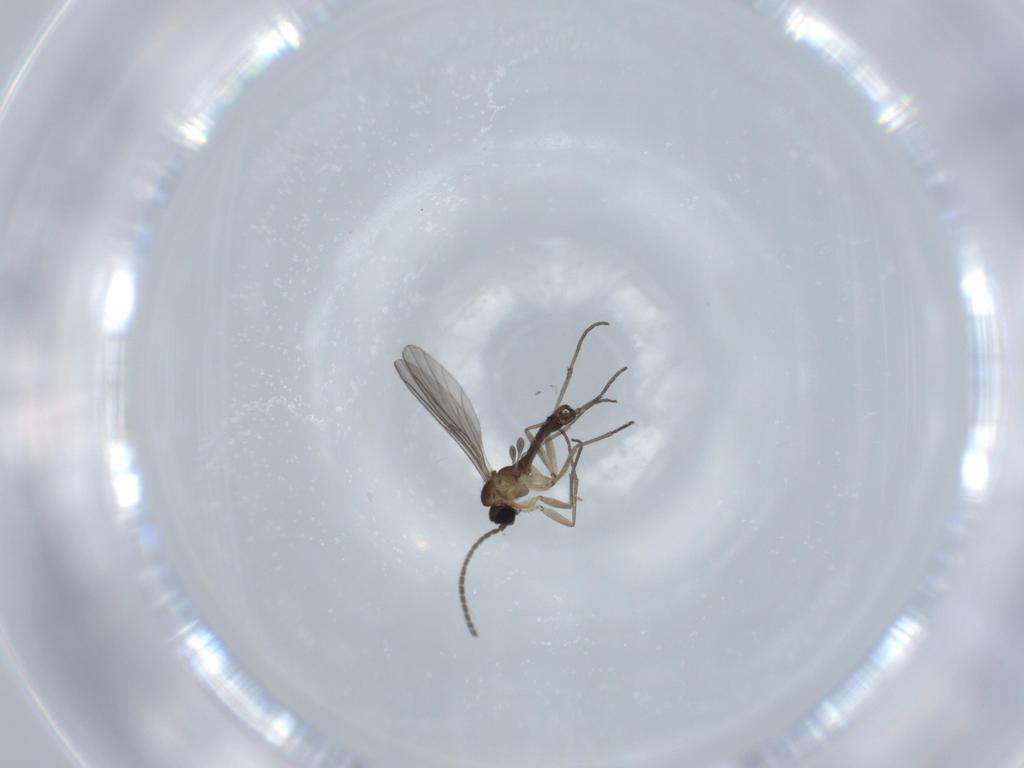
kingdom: Animalia
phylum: Arthropoda
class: Insecta
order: Diptera
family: Sciaridae
